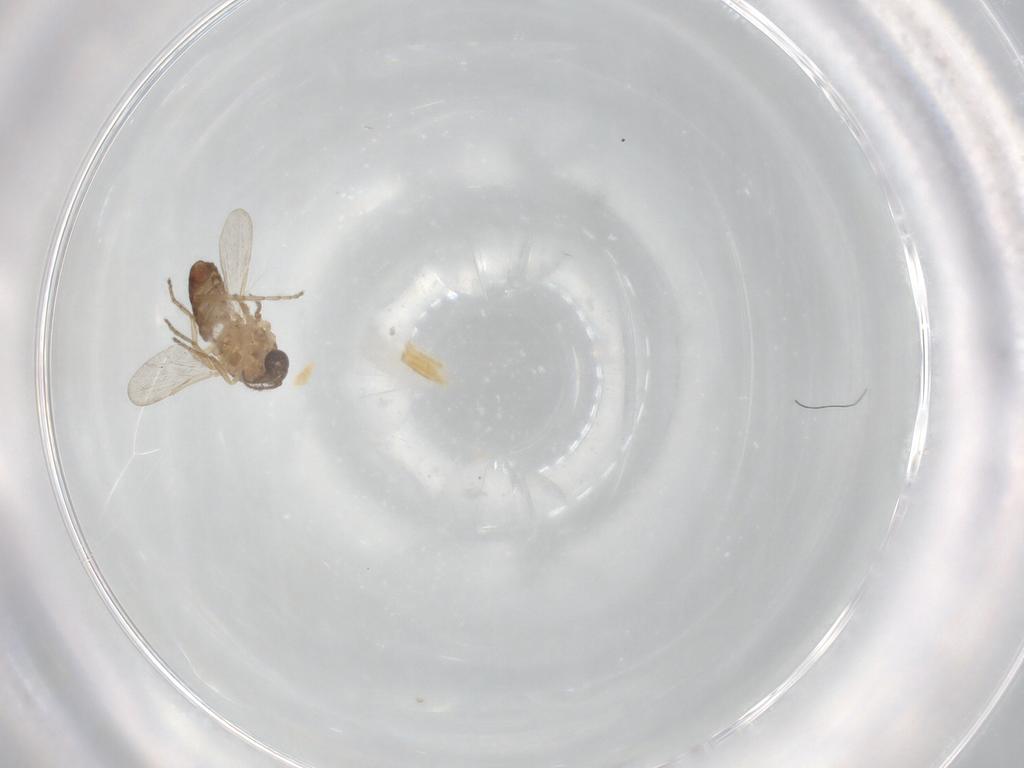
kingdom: Animalia
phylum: Arthropoda
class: Insecta
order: Diptera
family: Ceratopogonidae
